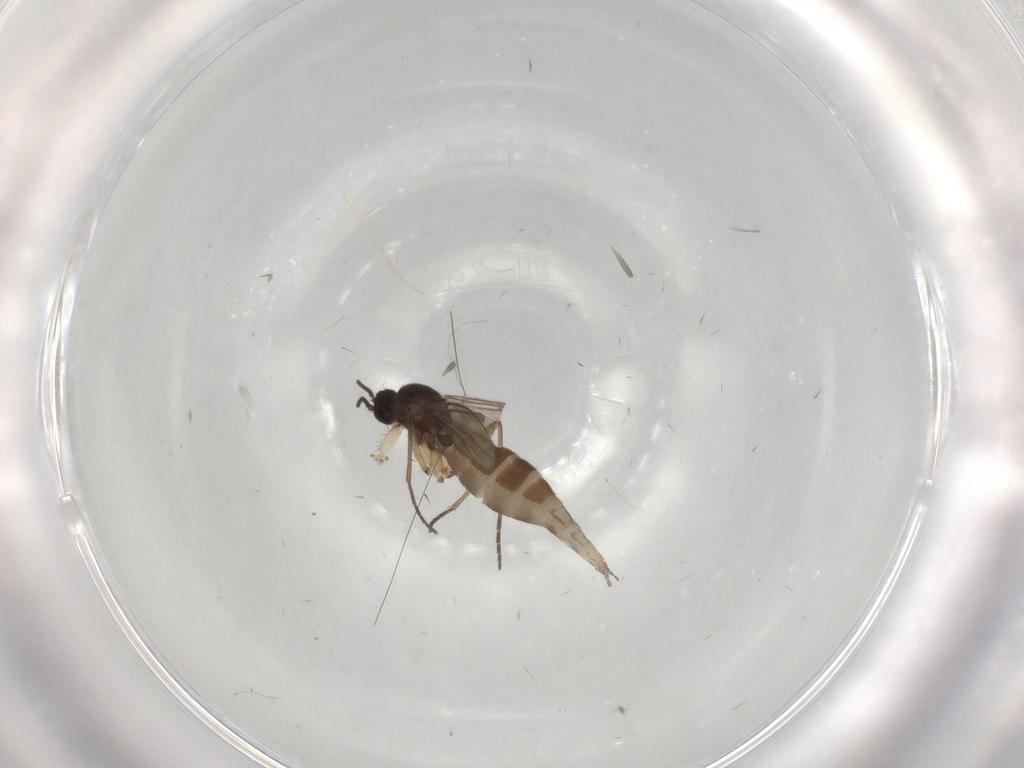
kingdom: Animalia
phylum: Arthropoda
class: Insecta
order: Diptera
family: Sciaridae
